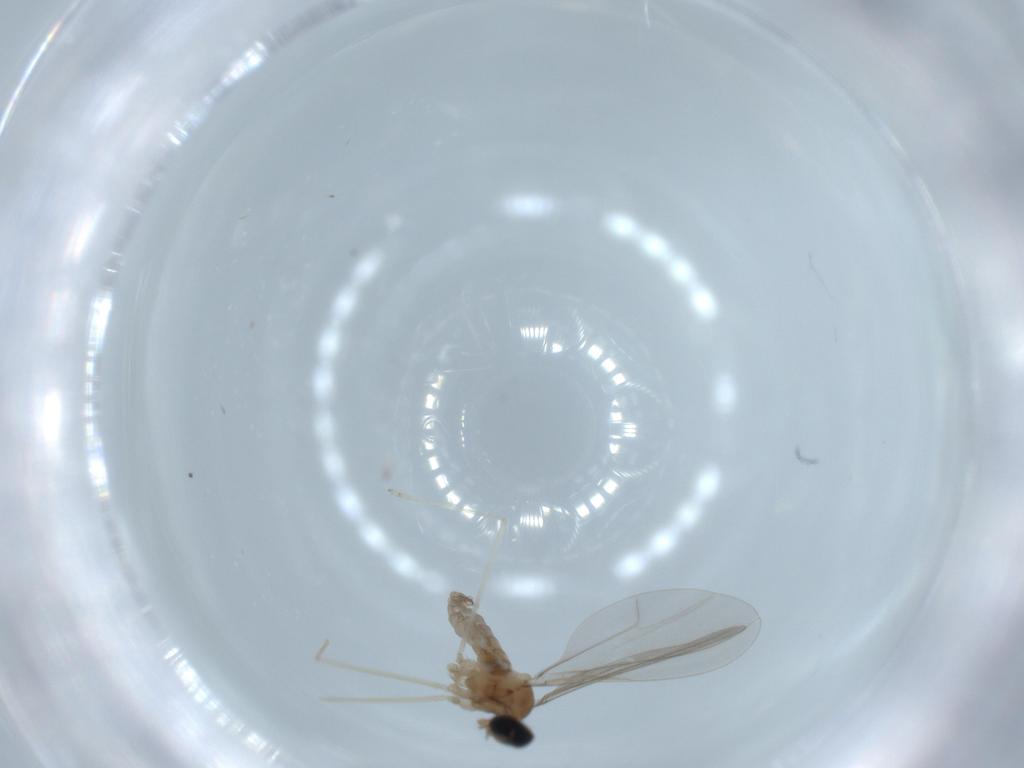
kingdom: Animalia
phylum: Arthropoda
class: Insecta
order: Diptera
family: Cecidomyiidae
